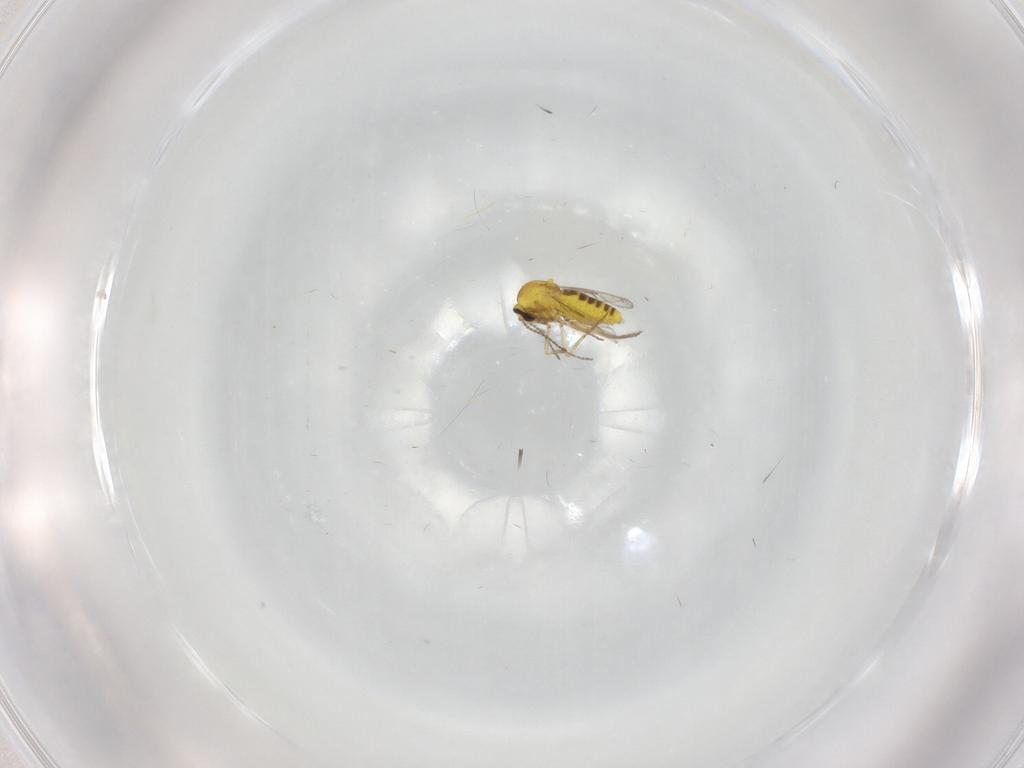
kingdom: Animalia
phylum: Arthropoda
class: Insecta
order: Diptera
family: Ceratopogonidae
